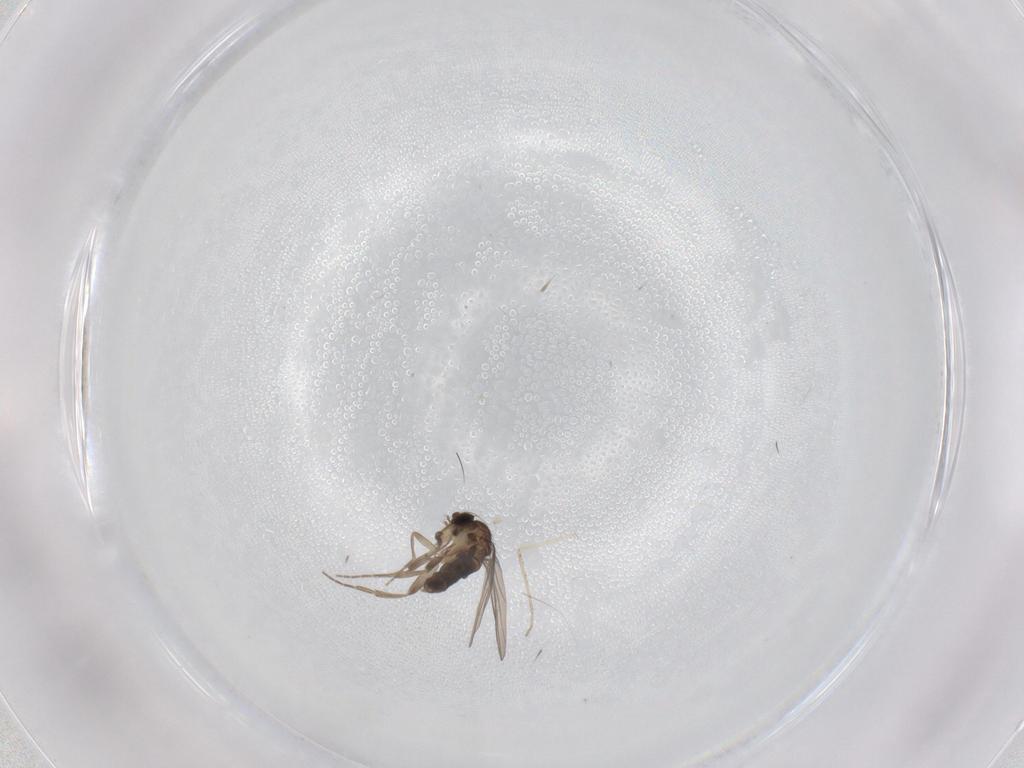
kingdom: Animalia
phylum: Arthropoda
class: Insecta
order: Diptera
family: Phoridae
